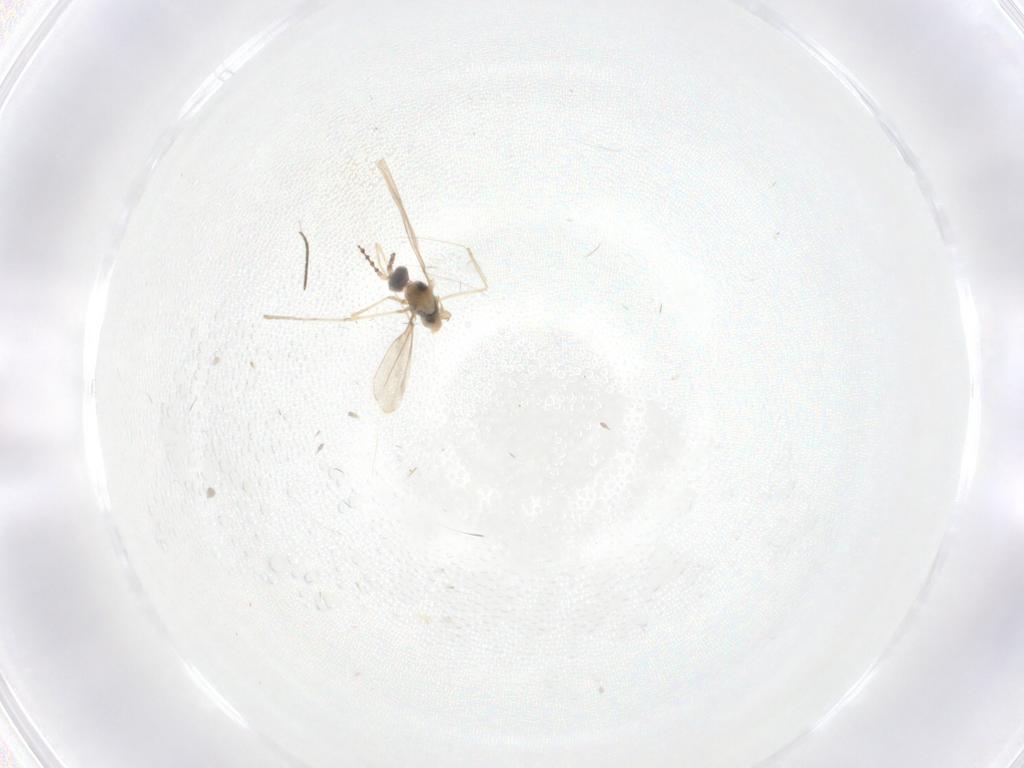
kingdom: Animalia
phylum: Arthropoda
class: Insecta
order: Diptera
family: Chironomidae
